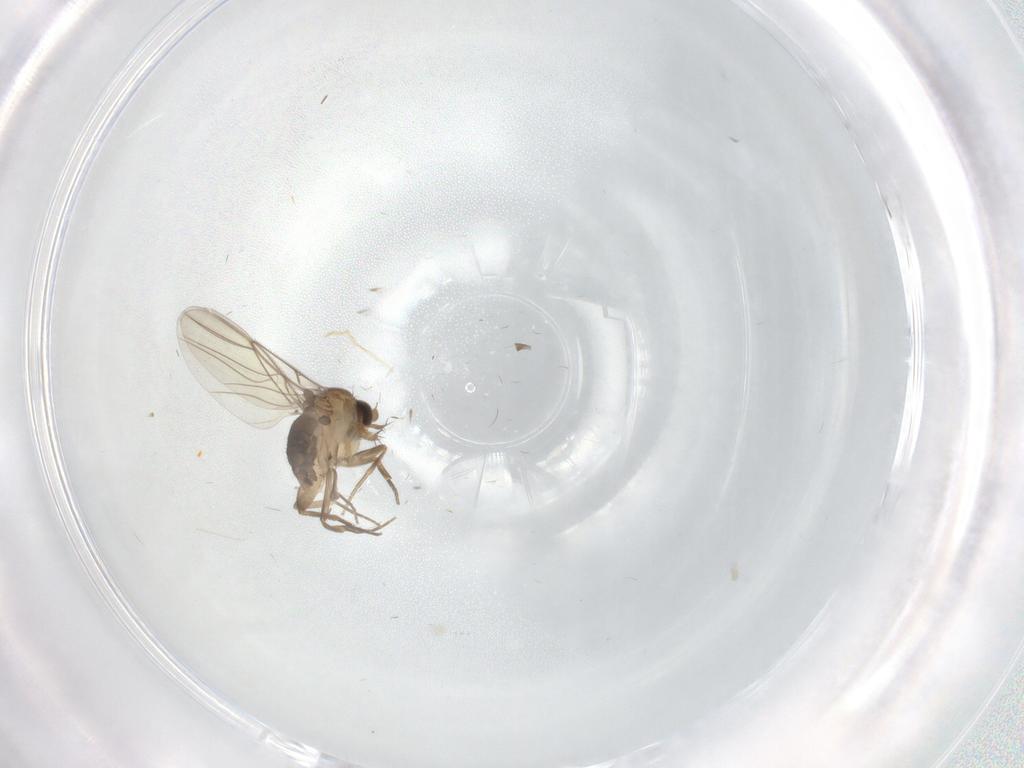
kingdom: Animalia
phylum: Arthropoda
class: Insecta
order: Diptera
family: Phoridae
